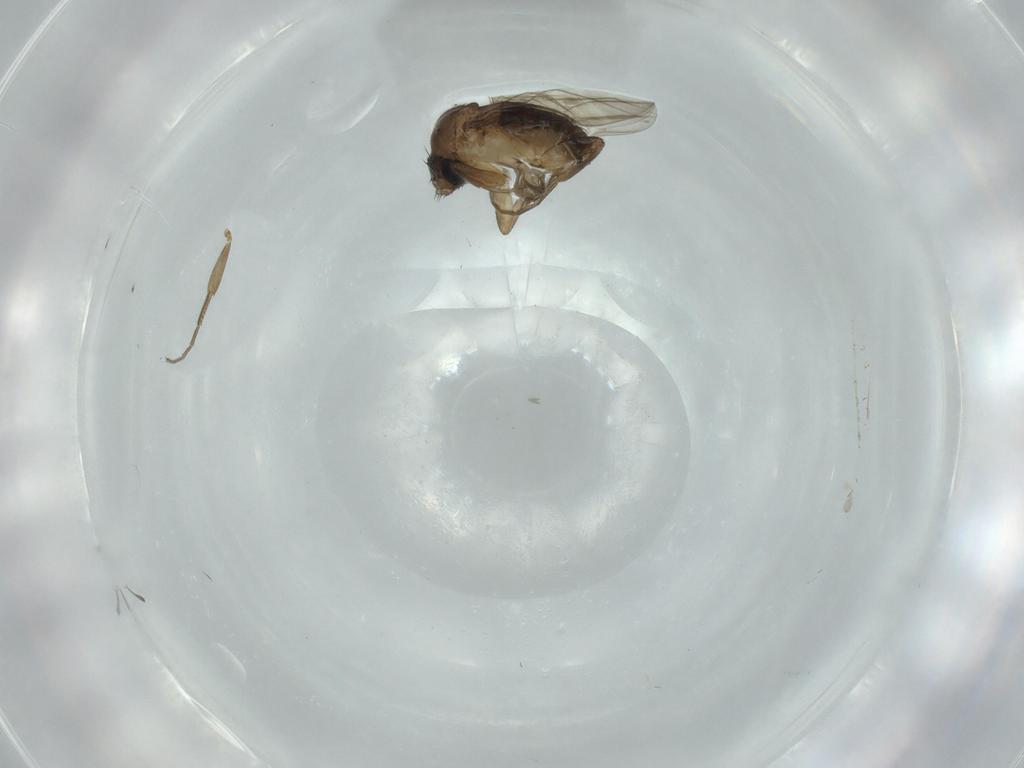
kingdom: Animalia
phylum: Arthropoda
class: Insecta
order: Diptera
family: Phoridae
